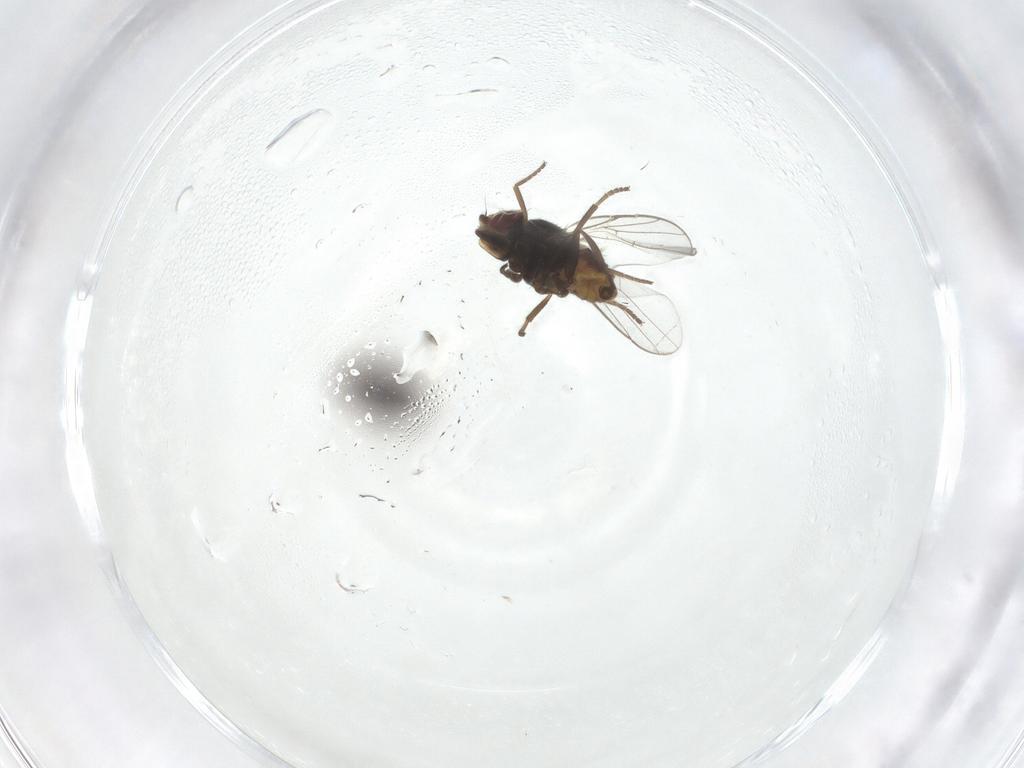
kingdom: Animalia
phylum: Arthropoda
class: Insecta
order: Diptera
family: Chloropidae
